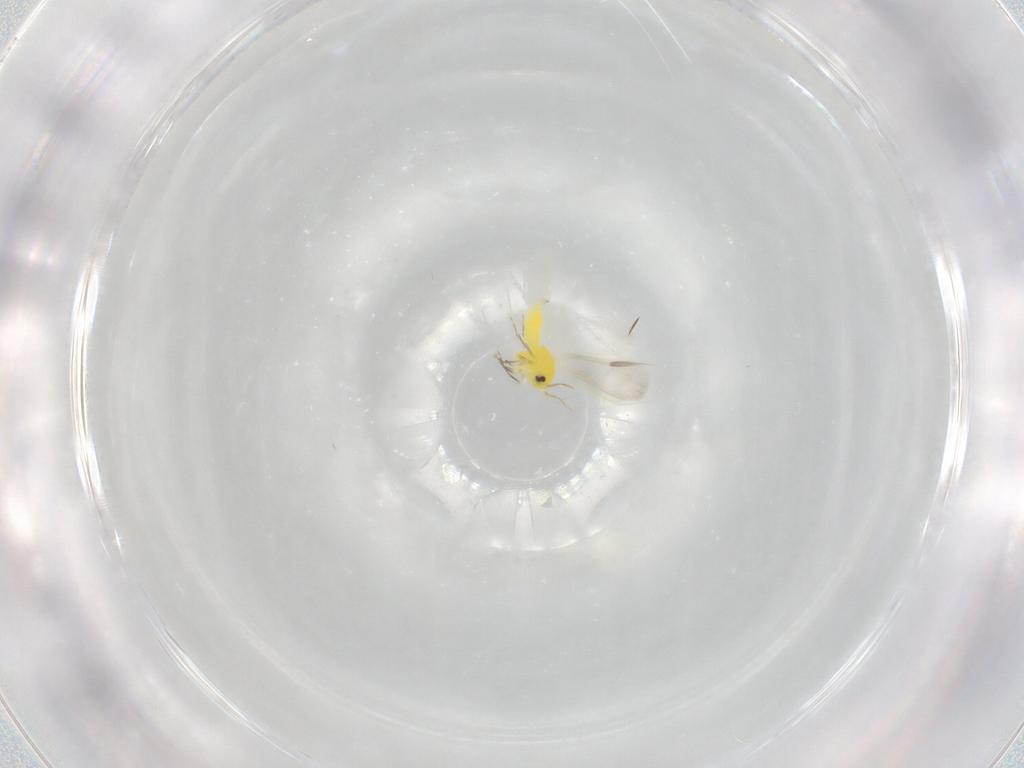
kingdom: Animalia
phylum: Arthropoda
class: Insecta
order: Hemiptera
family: Aleyrodidae
